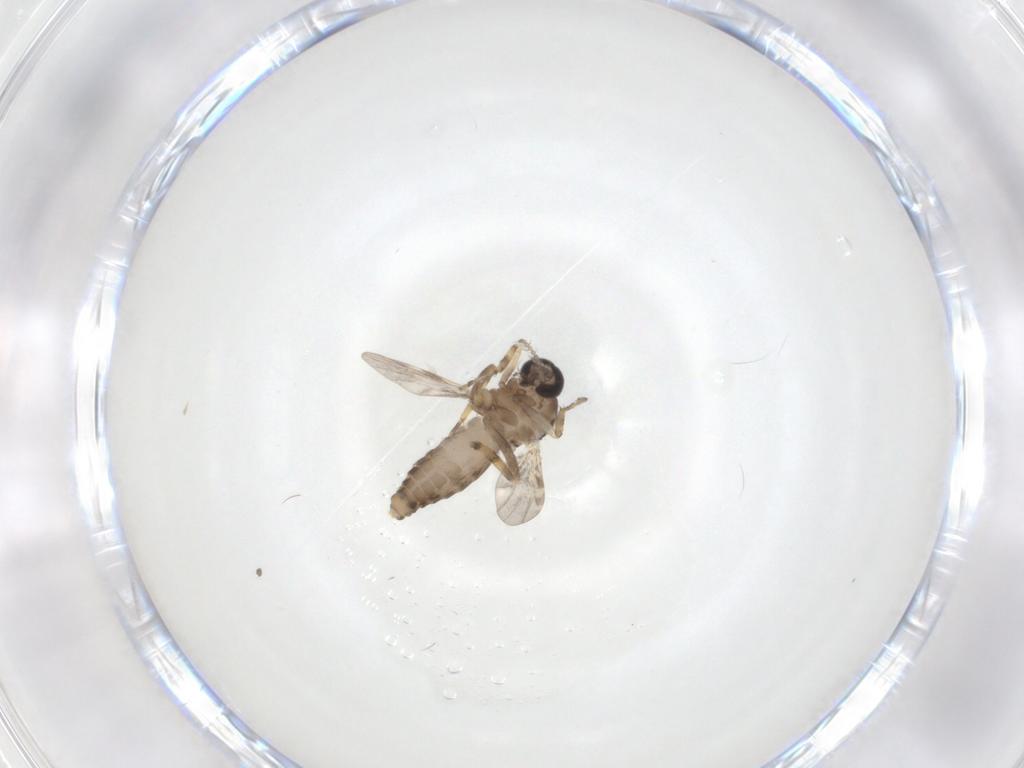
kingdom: Animalia
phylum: Arthropoda
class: Insecta
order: Diptera
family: Ceratopogonidae
